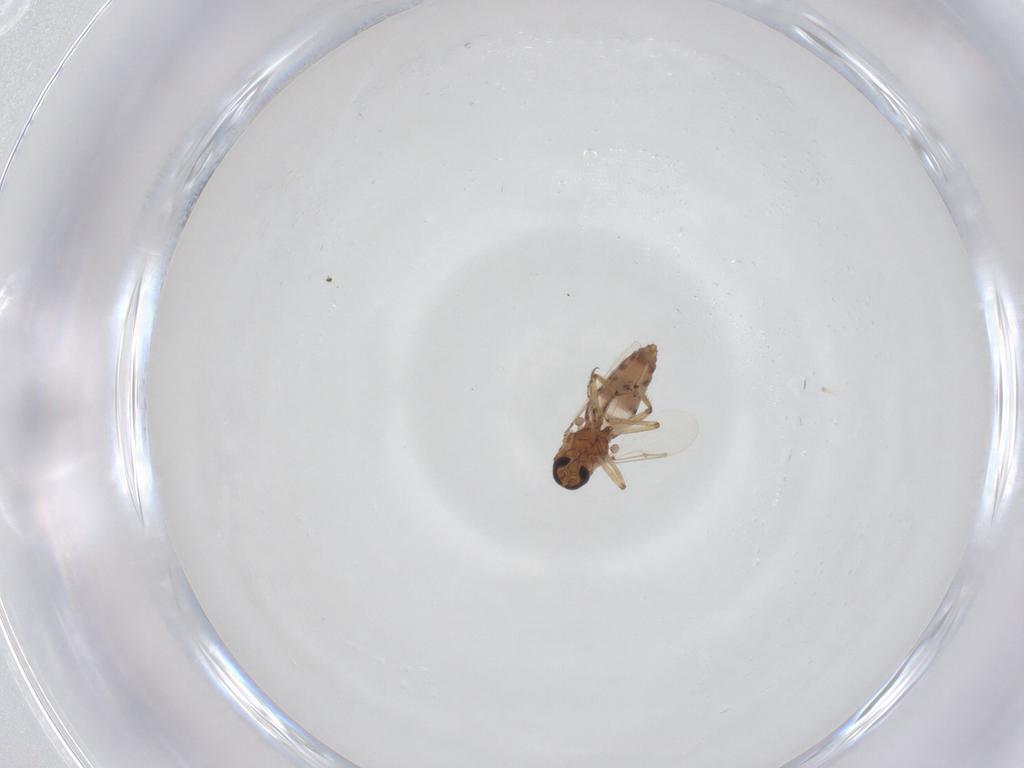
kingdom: Animalia
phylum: Arthropoda
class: Insecta
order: Diptera
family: Ceratopogonidae
